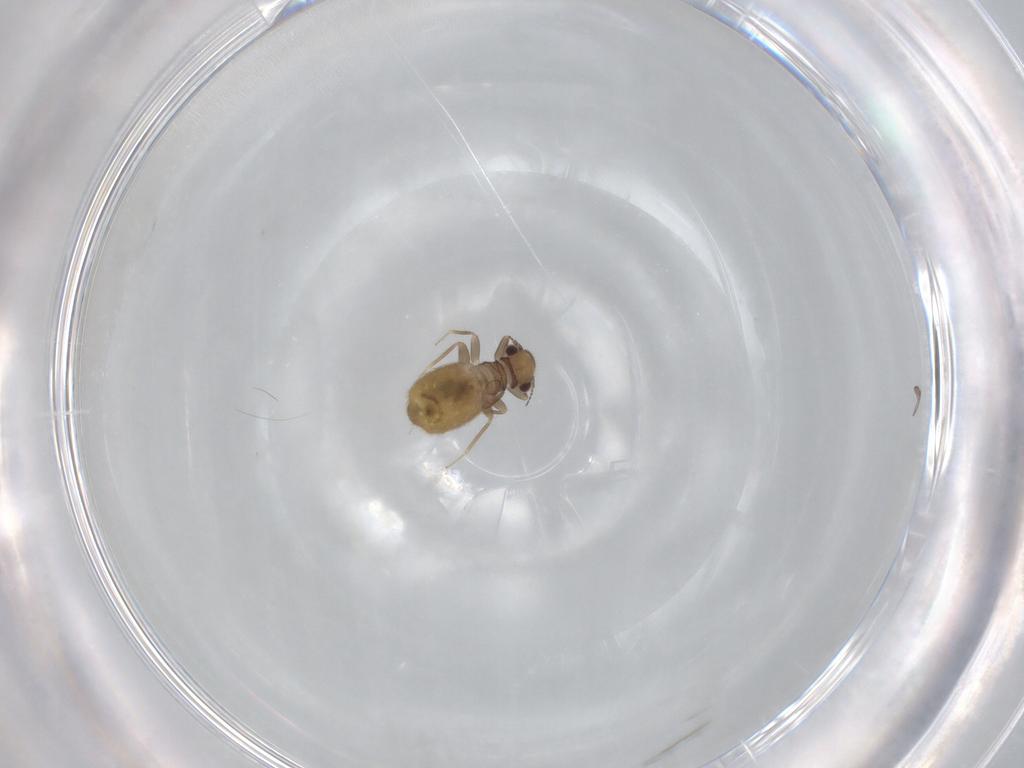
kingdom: Animalia
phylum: Arthropoda
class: Insecta
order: Psocodea
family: Trogiidae
